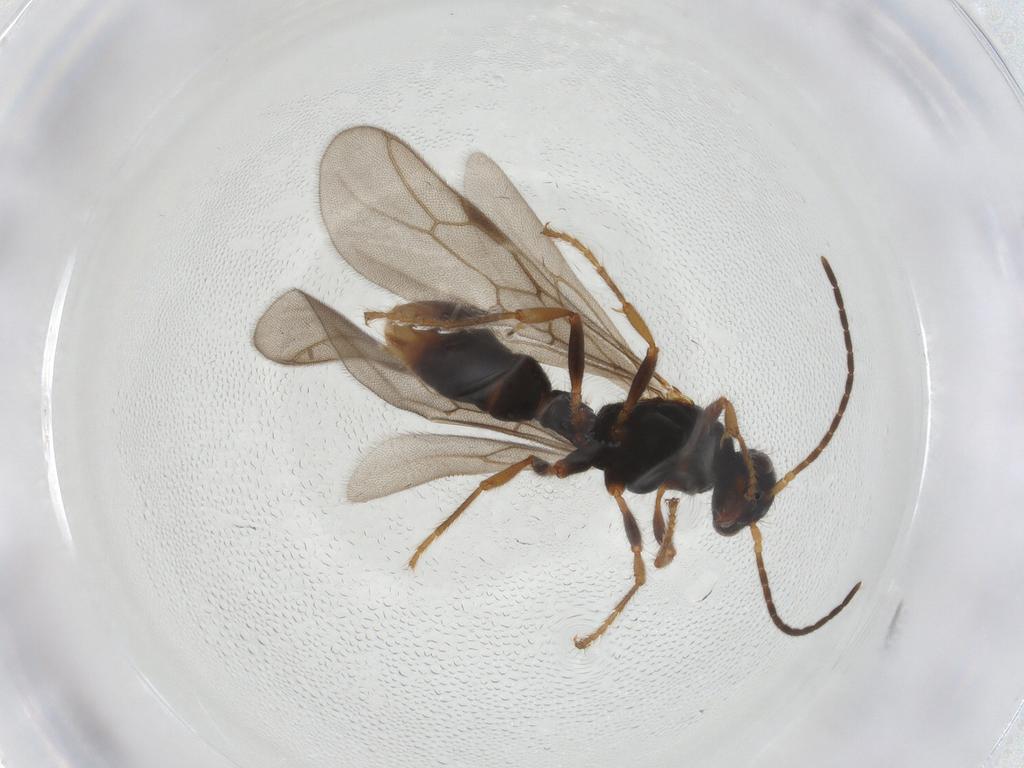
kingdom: Animalia
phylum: Arthropoda
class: Insecta
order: Hymenoptera
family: Formicidae
